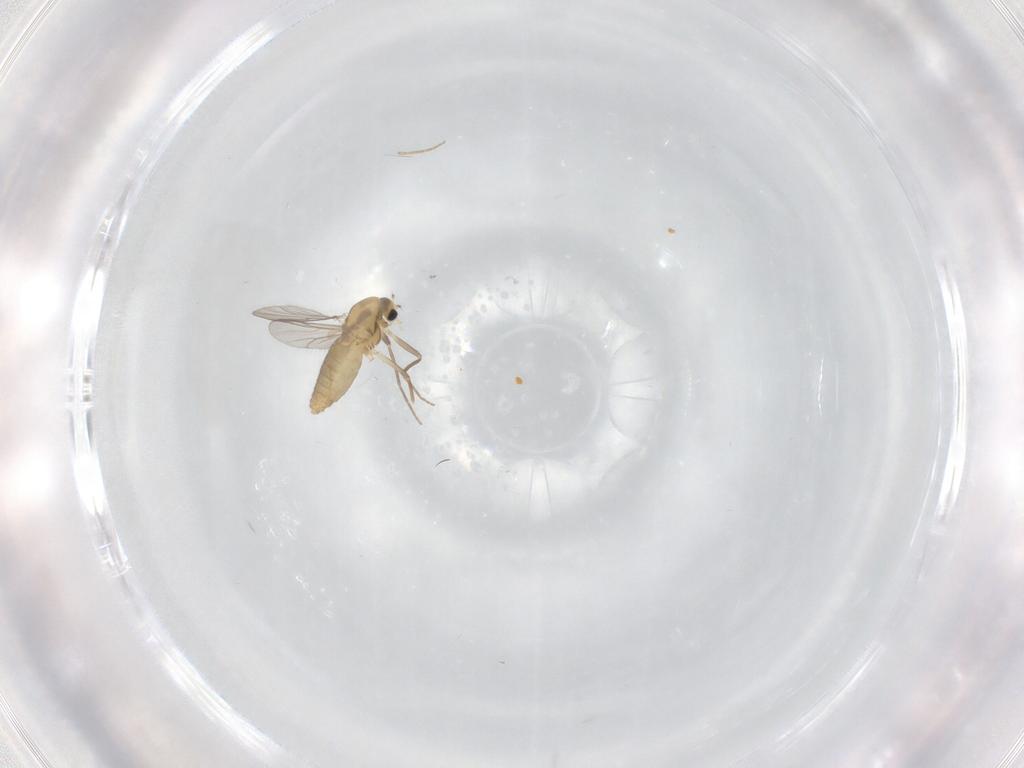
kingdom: Animalia
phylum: Arthropoda
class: Insecta
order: Diptera
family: Chironomidae
